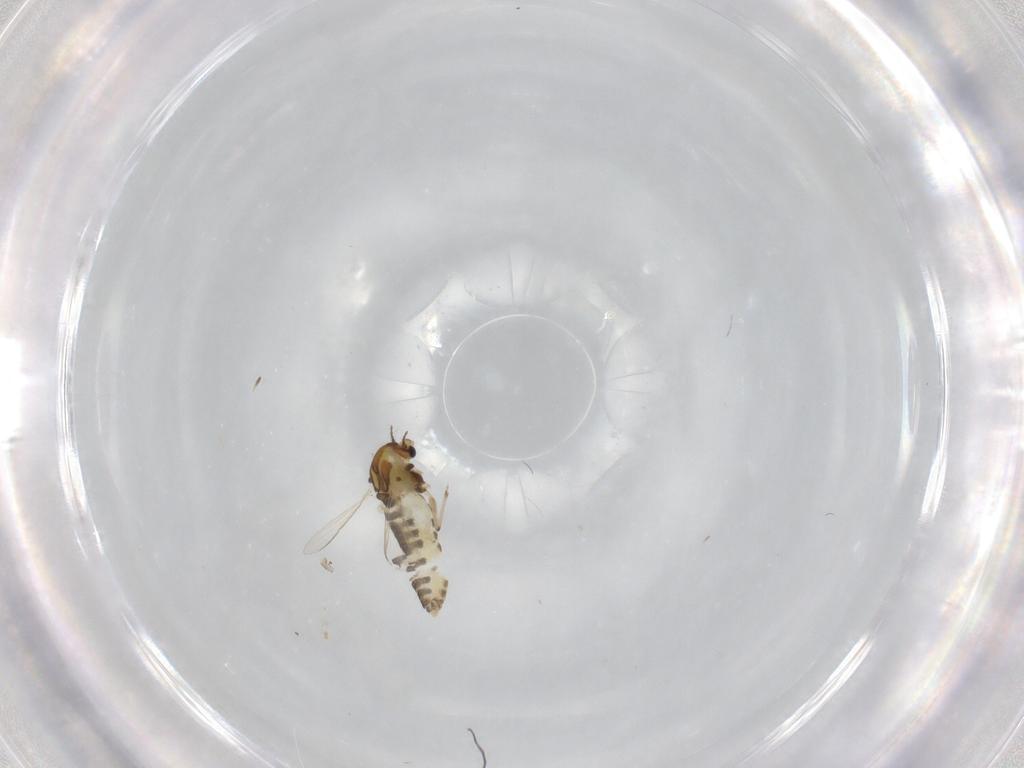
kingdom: Animalia
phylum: Arthropoda
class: Insecta
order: Diptera
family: Chironomidae
